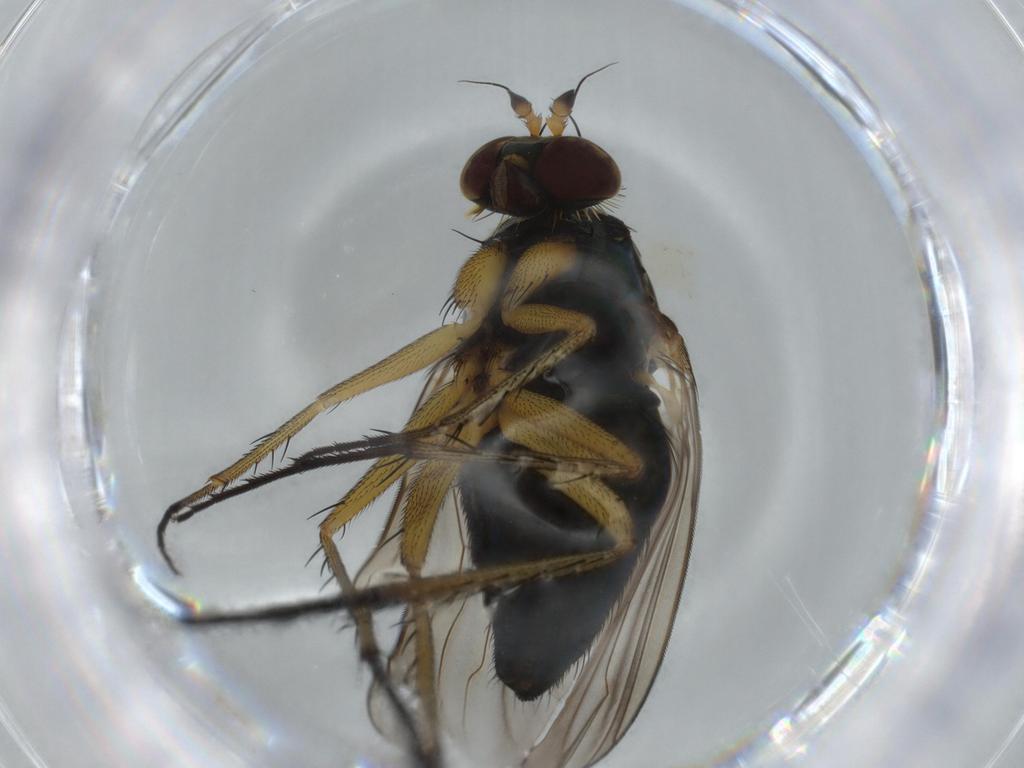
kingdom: Animalia
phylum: Arthropoda
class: Insecta
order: Diptera
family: Dolichopodidae
